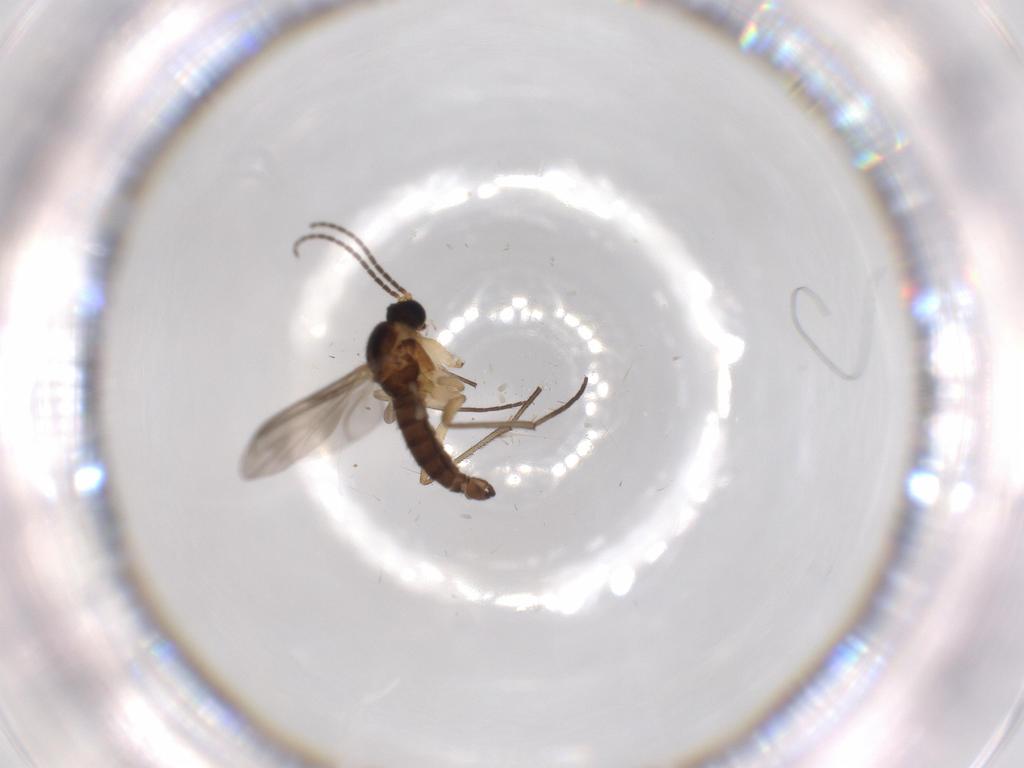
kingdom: Animalia
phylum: Arthropoda
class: Insecta
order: Diptera
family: Sciaridae
